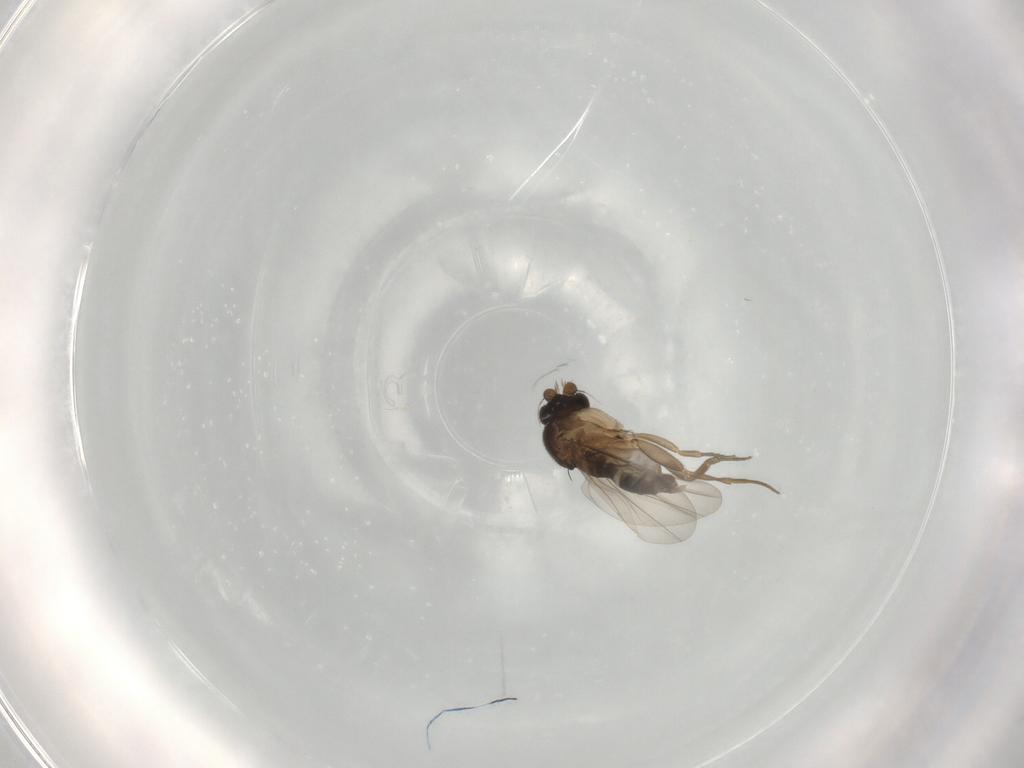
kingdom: Animalia
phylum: Arthropoda
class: Insecta
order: Diptera
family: Phoridae
